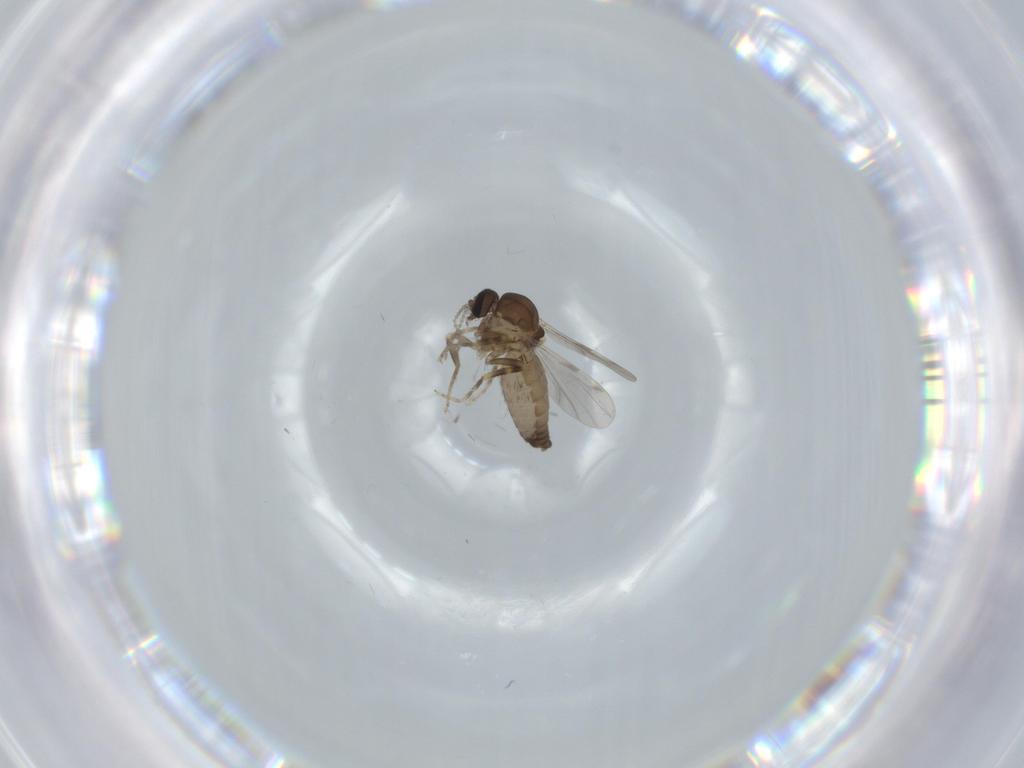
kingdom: Animalia
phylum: Arthropoda
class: Insecta
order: Diptera
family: Ceratopogonidae
